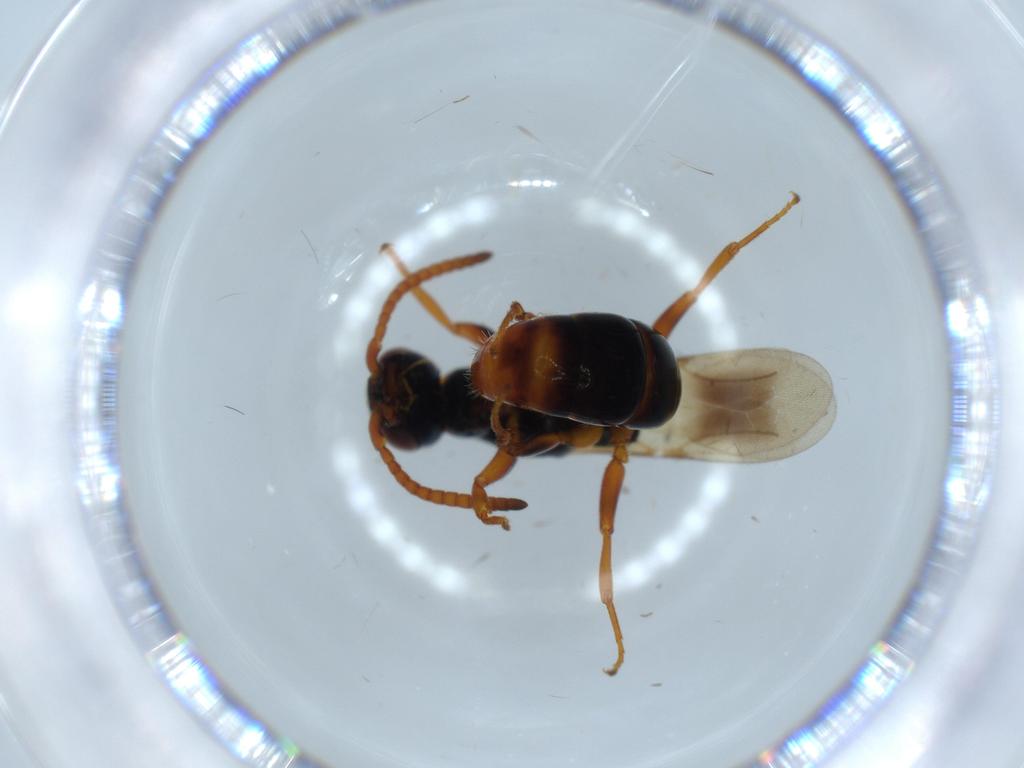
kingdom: Animalia
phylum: Arthropoda
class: Insecta
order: Hymenoptera
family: Bethylidae
